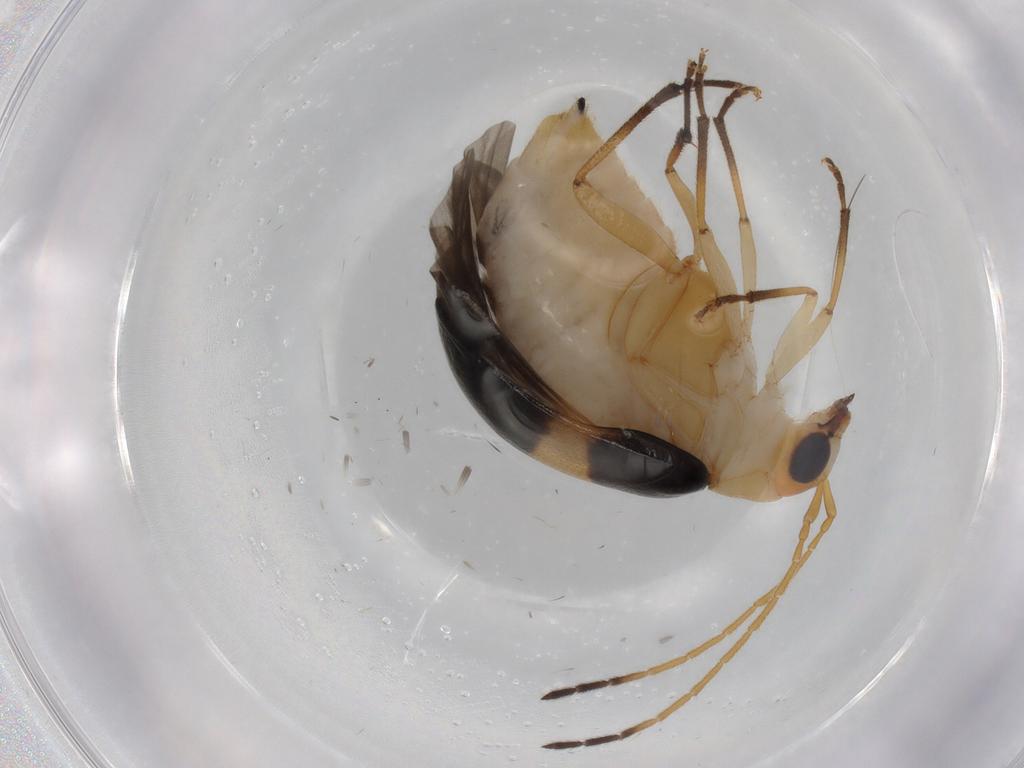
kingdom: Animalia
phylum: Arthropoda
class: Insecta
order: Coleoptera
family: Chrysomelidae
